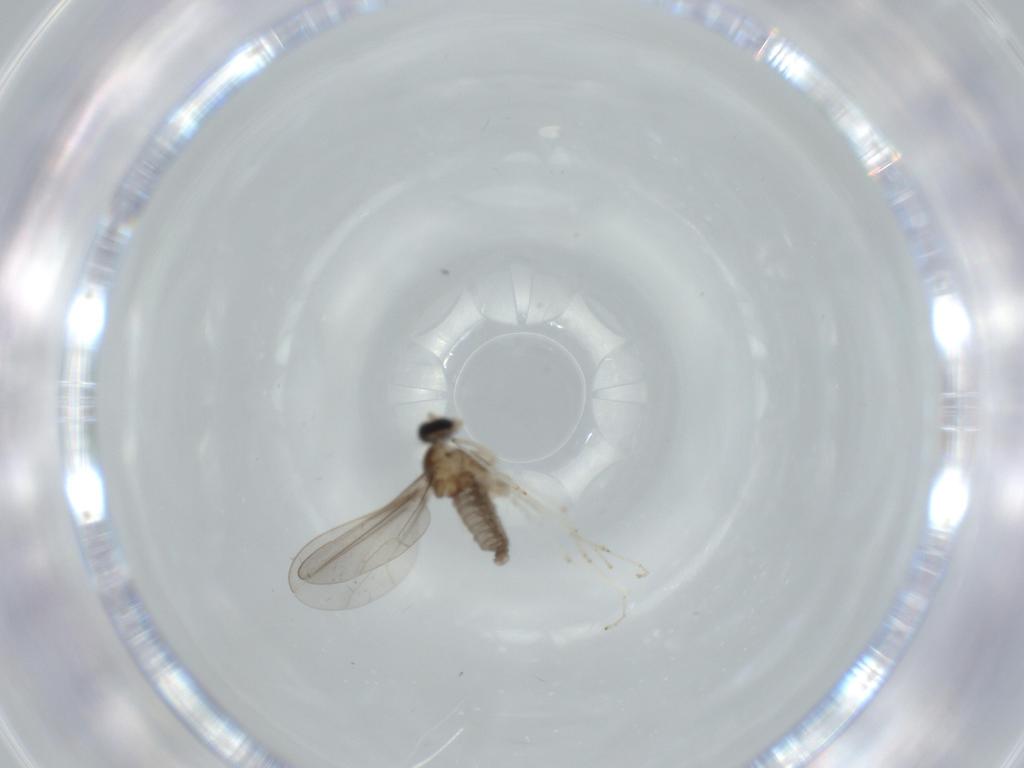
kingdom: Animalia
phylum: Arthropoda
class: Insecta
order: Diptera
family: Cecidomyiidae
